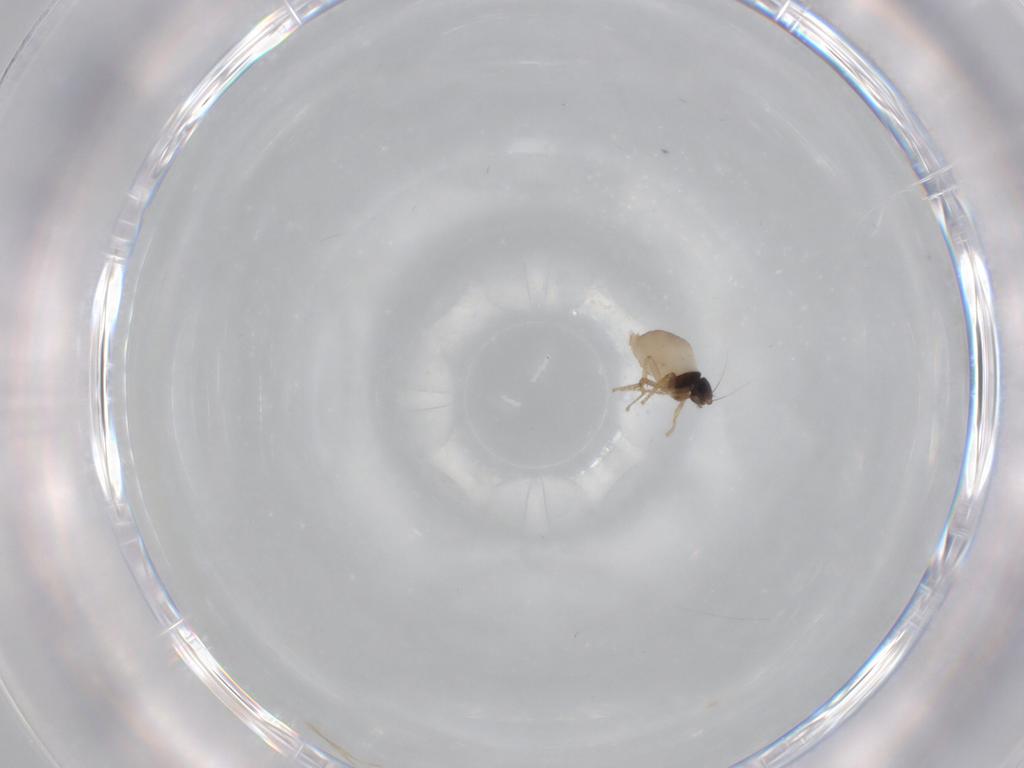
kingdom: Animalia
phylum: Arthropoda
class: Insecta
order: Diptera
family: Phoridae
